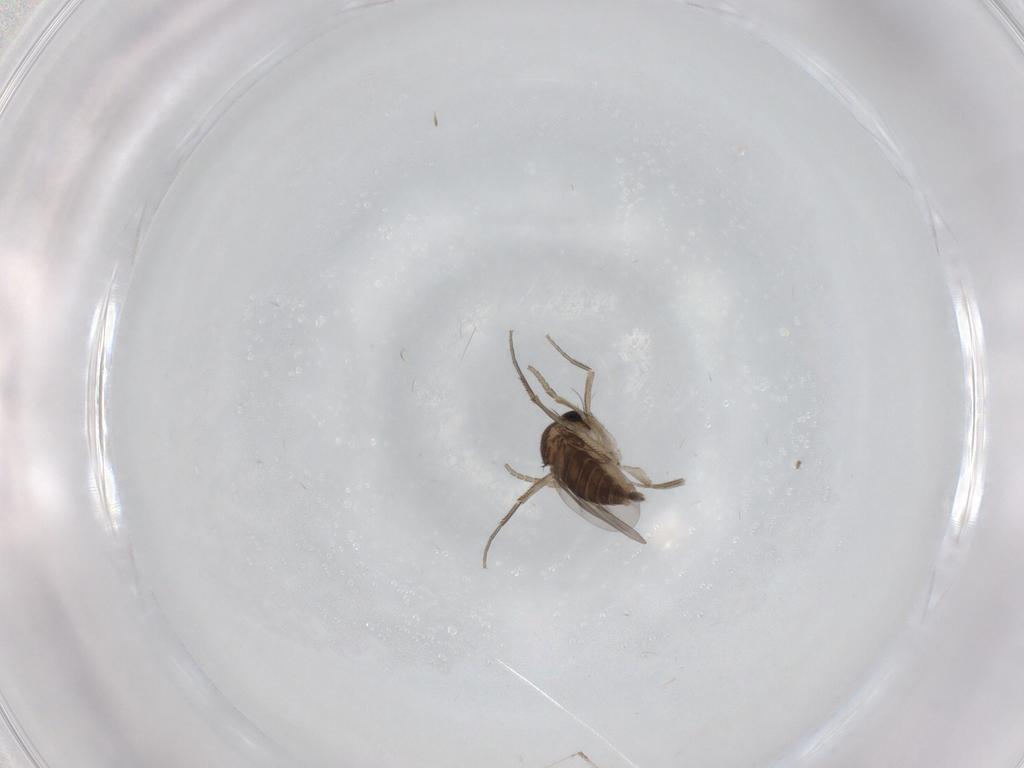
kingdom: Animalia
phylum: Arthropoda
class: Insecta
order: Diptera
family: Phoridae
